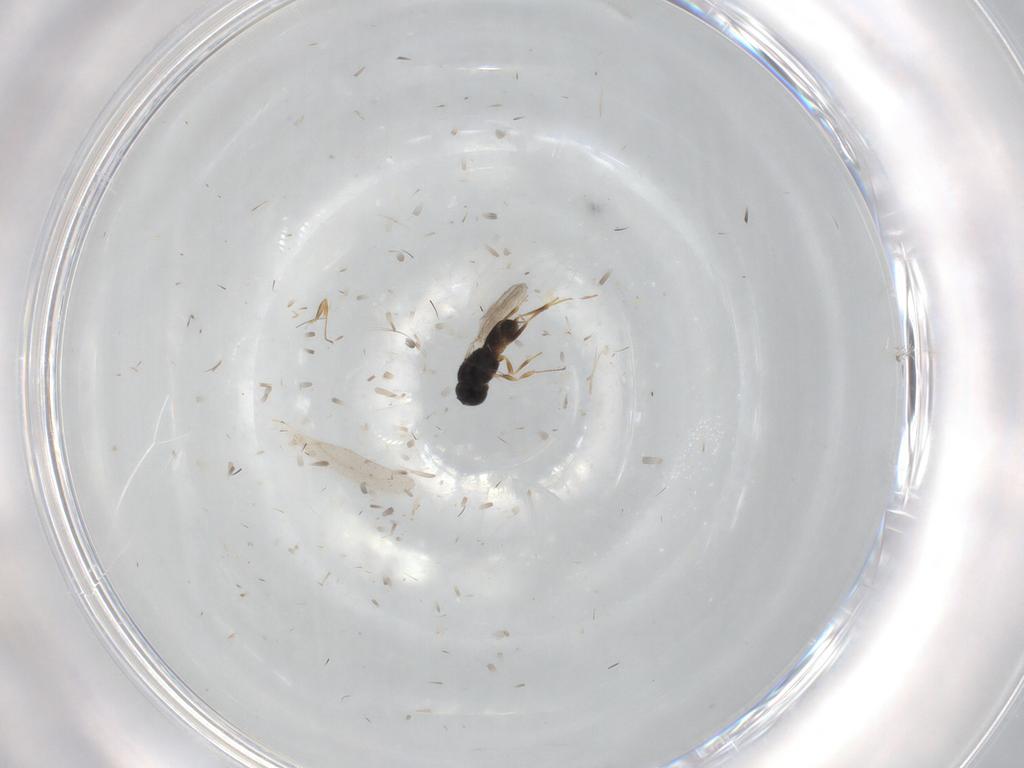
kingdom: Animalia
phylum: Arthropoda
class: Insecta
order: Hymenoptera
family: Scelionidae
